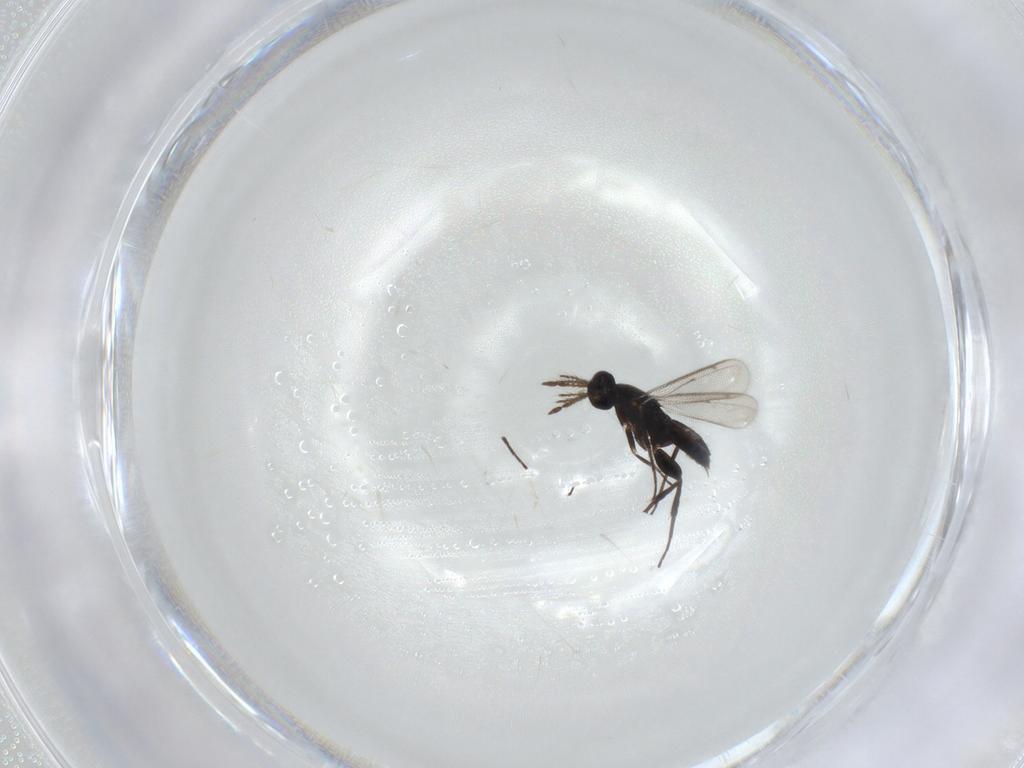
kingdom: Animalia
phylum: Arthropoda
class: Insecta
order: Hymenoptera
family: Scelionidae
